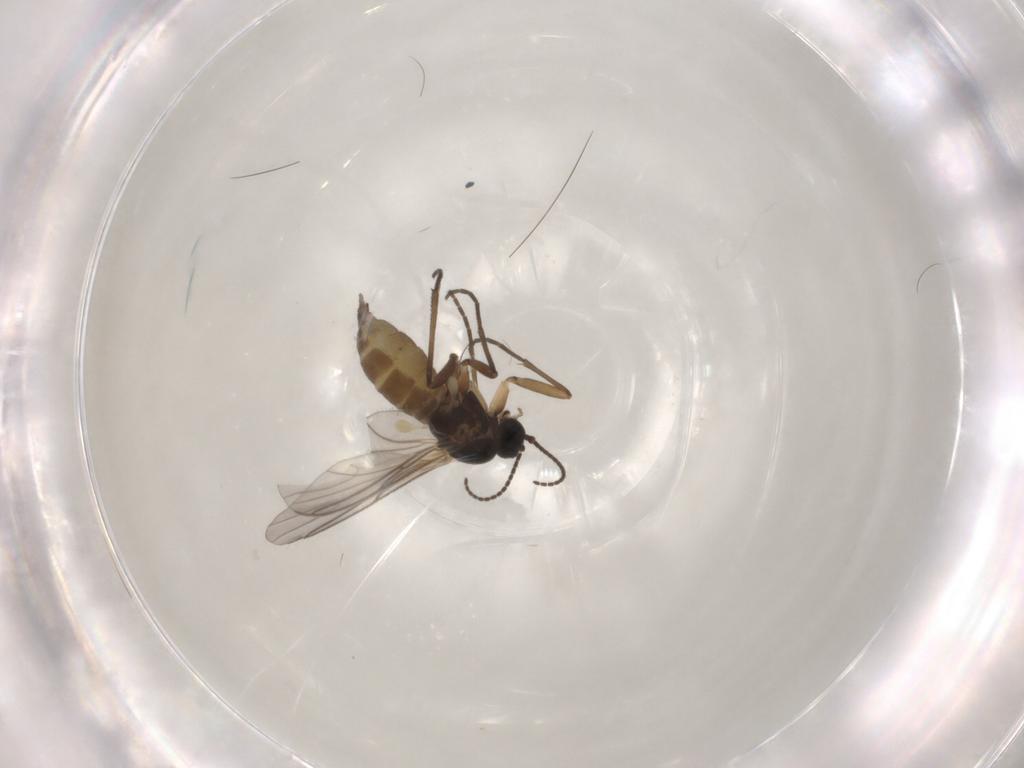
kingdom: Animalia
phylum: Arthropoda
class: Insecta
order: Diptera
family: Sciaridae
